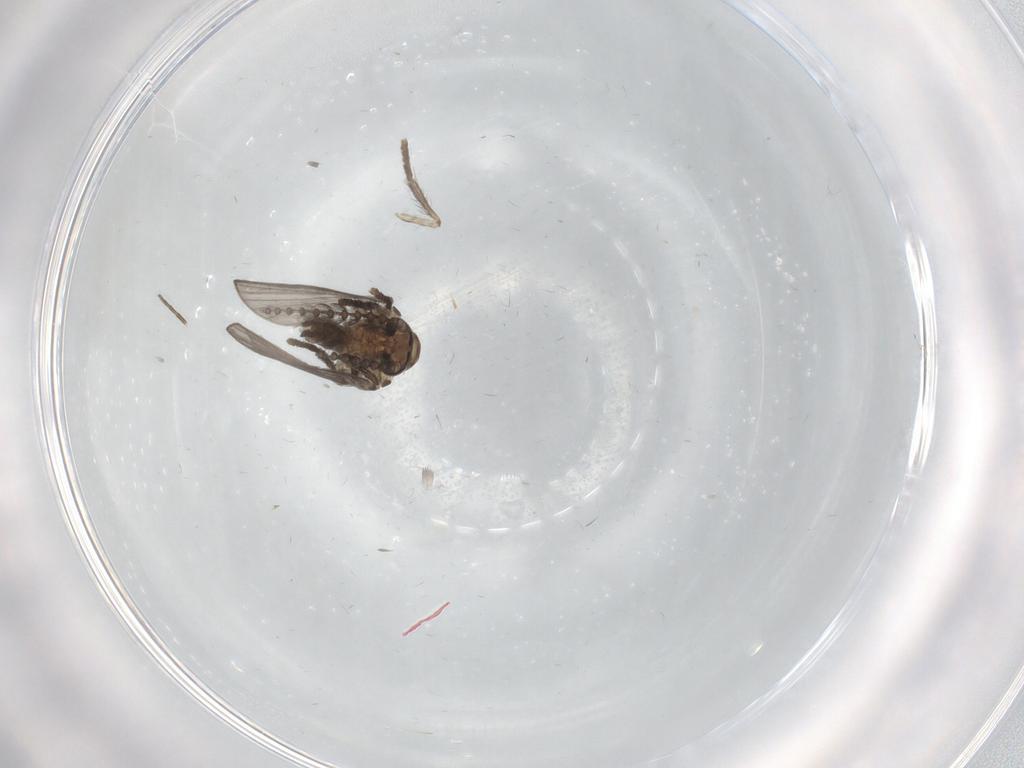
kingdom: Animalia
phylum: Arthropoda
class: Insecta
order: Diptera
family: Psychodidae
